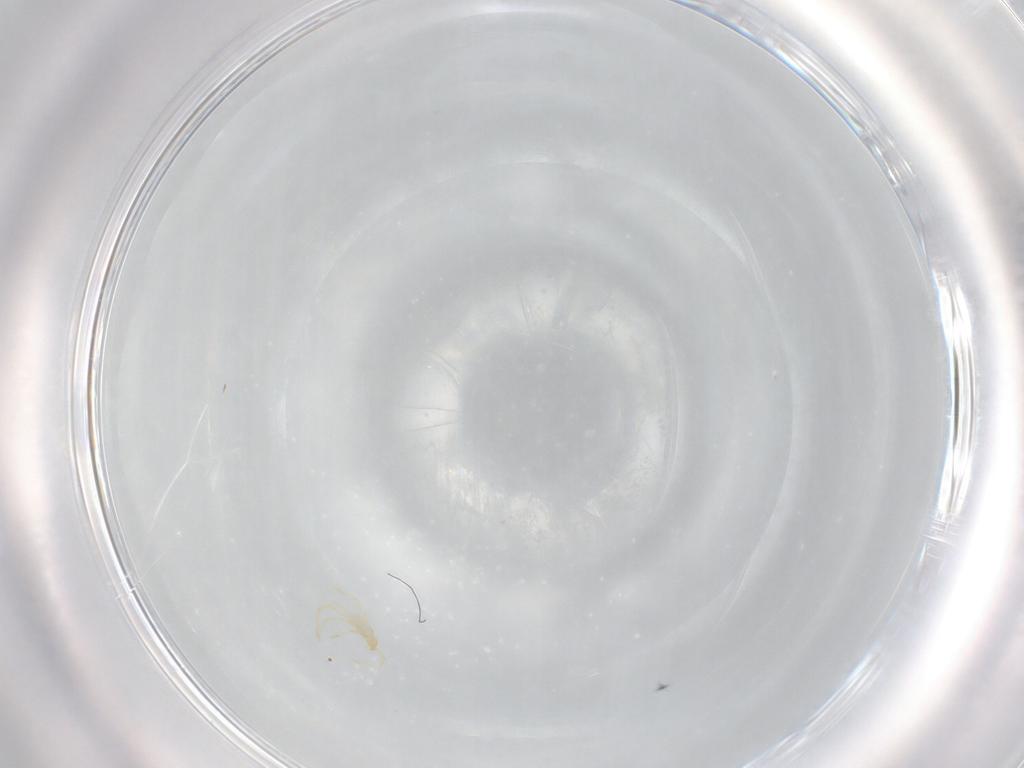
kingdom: Animalia
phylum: Arthropoda
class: Arachnida
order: Trombidiformes
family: Erythraeidae
